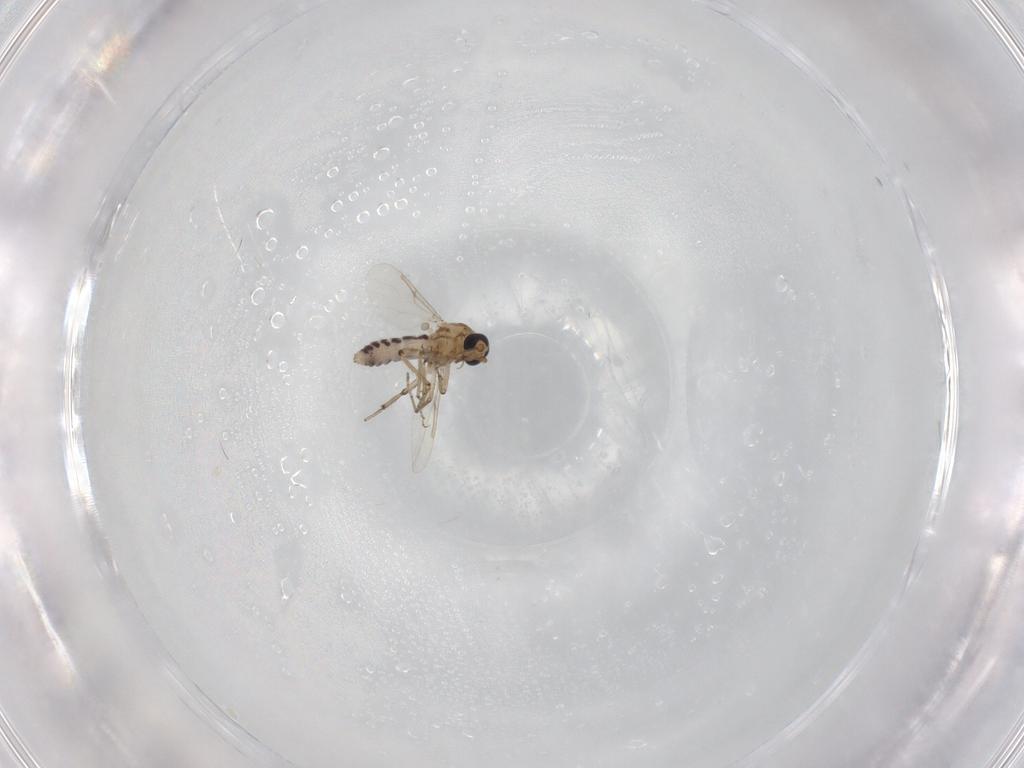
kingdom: Animalia
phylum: Arthropoda
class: Insecta
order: Diptera
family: Ceratopogonidae
